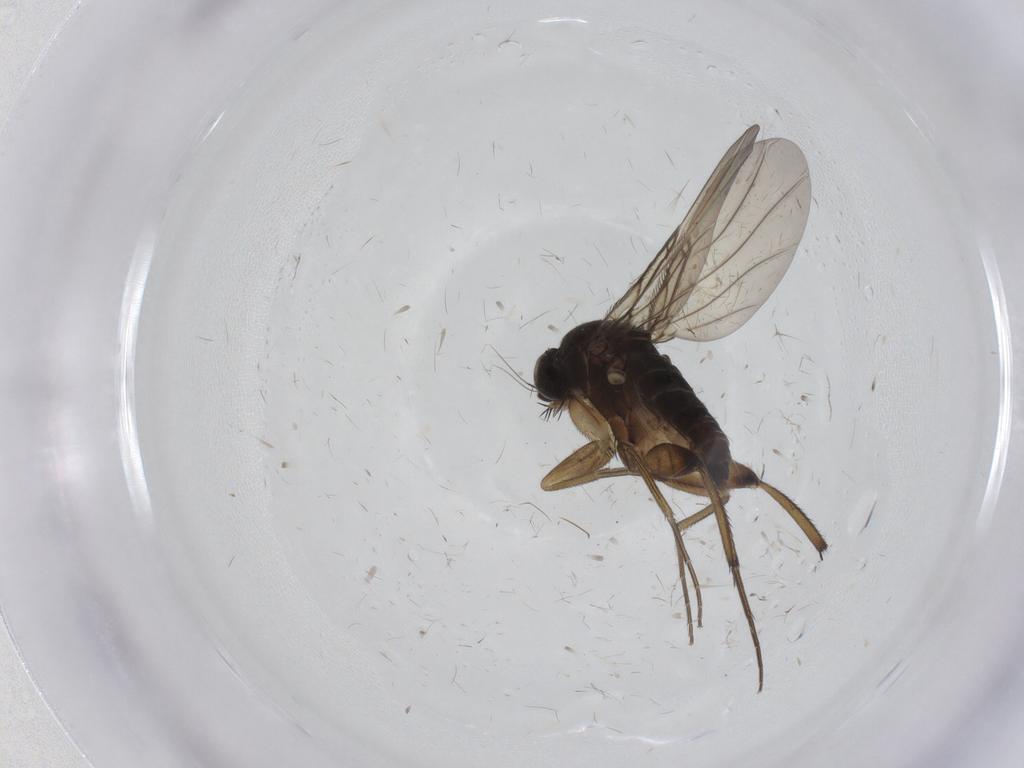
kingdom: Animalia
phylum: Arthropoda
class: Insecta
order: Diptera
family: Phoridae
